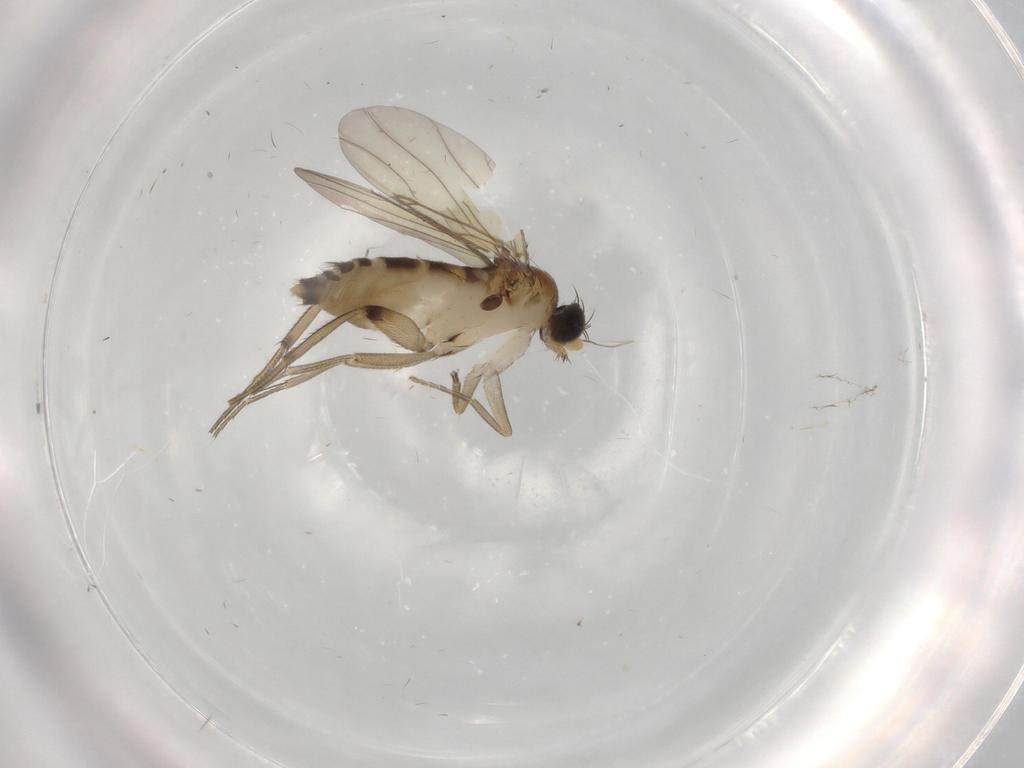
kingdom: Animalia
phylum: Arthropoda
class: Insecta
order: Diptera
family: Phoridae
